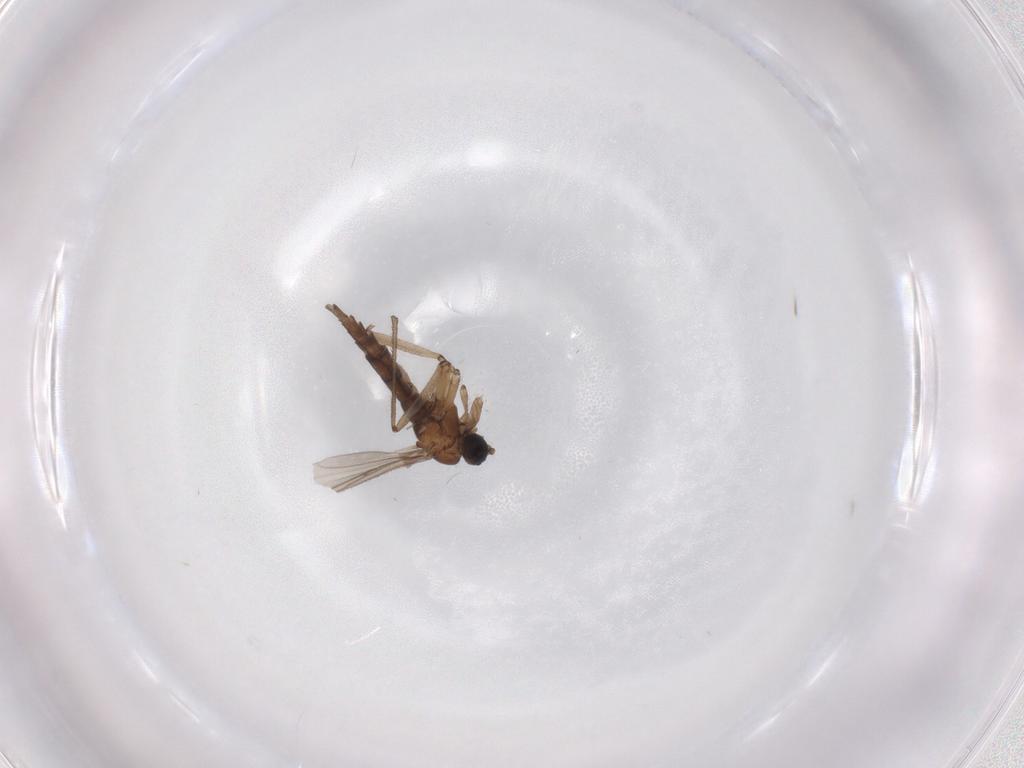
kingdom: Animalia
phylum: Arthropoda
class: Insecta
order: Diptera
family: Sciaridae
